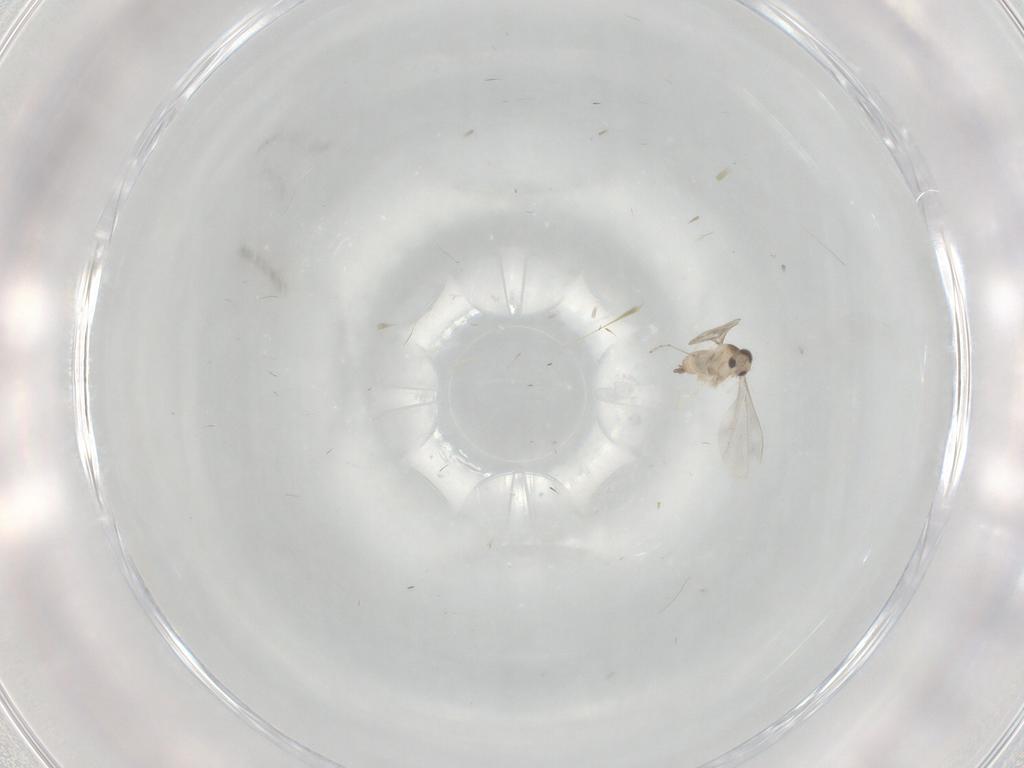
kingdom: Animalia
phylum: Arthropoda
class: Insecta
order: Diptera
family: Cecidomyiidae
